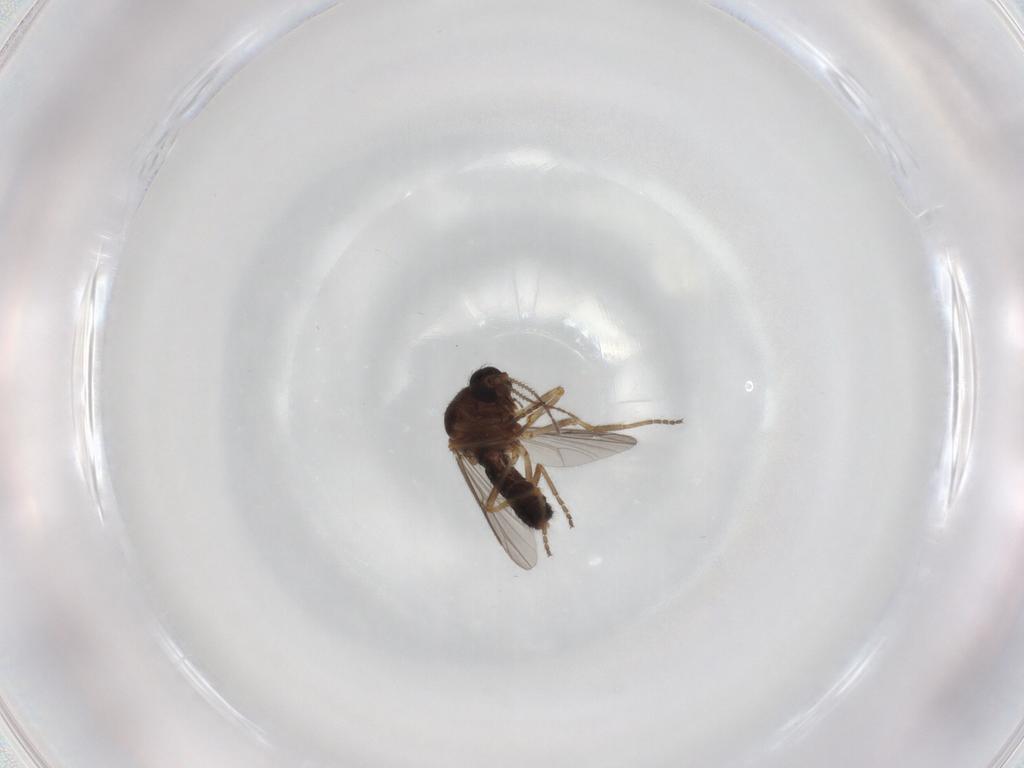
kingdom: Animalia
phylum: Arthropoda
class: Insecta
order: Diptera
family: Ceratopogonidae
